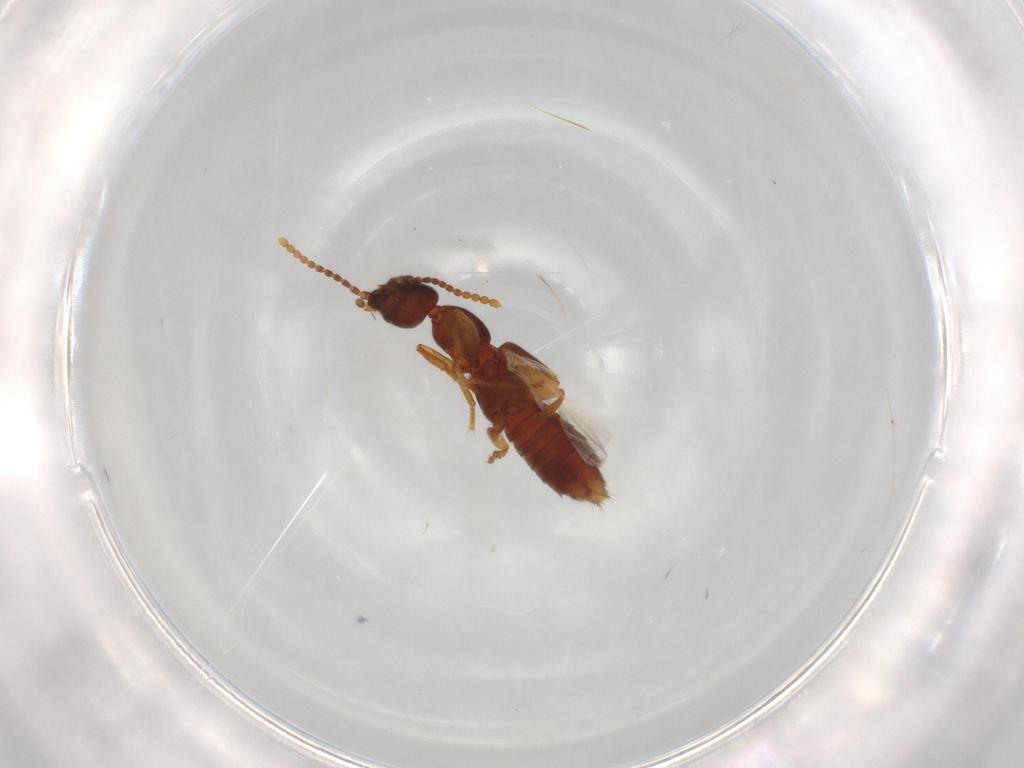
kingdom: Animalia
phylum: Arthropoda
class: Insecta
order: Coleoptera
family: Staphylinidae
